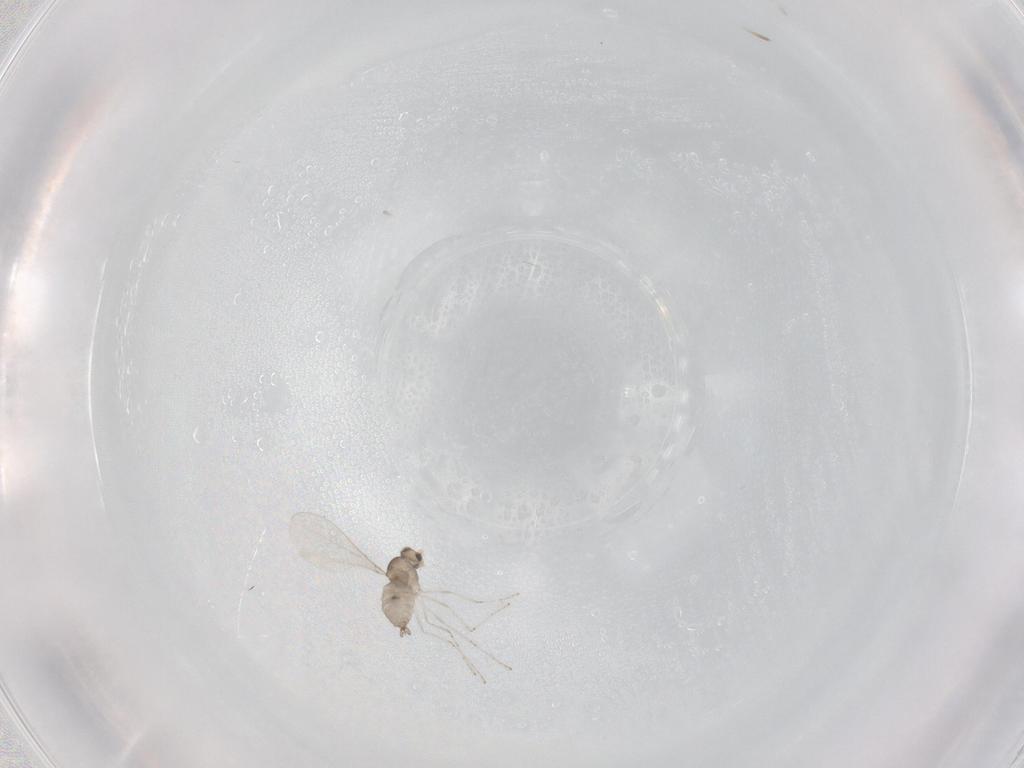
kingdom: Animalia
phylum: Arthropoda
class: Insecta
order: Diptera
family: Cecidomyiidae
